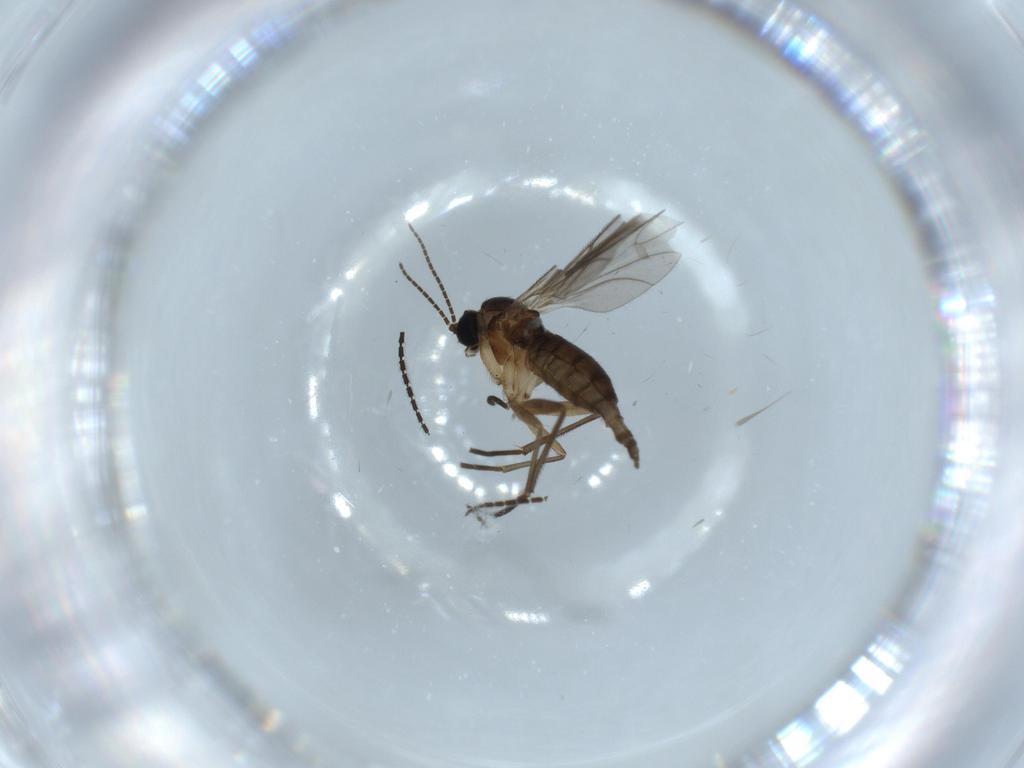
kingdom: Animalia
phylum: Arthropoda
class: Insecta
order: Diptera
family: Sciaridae
